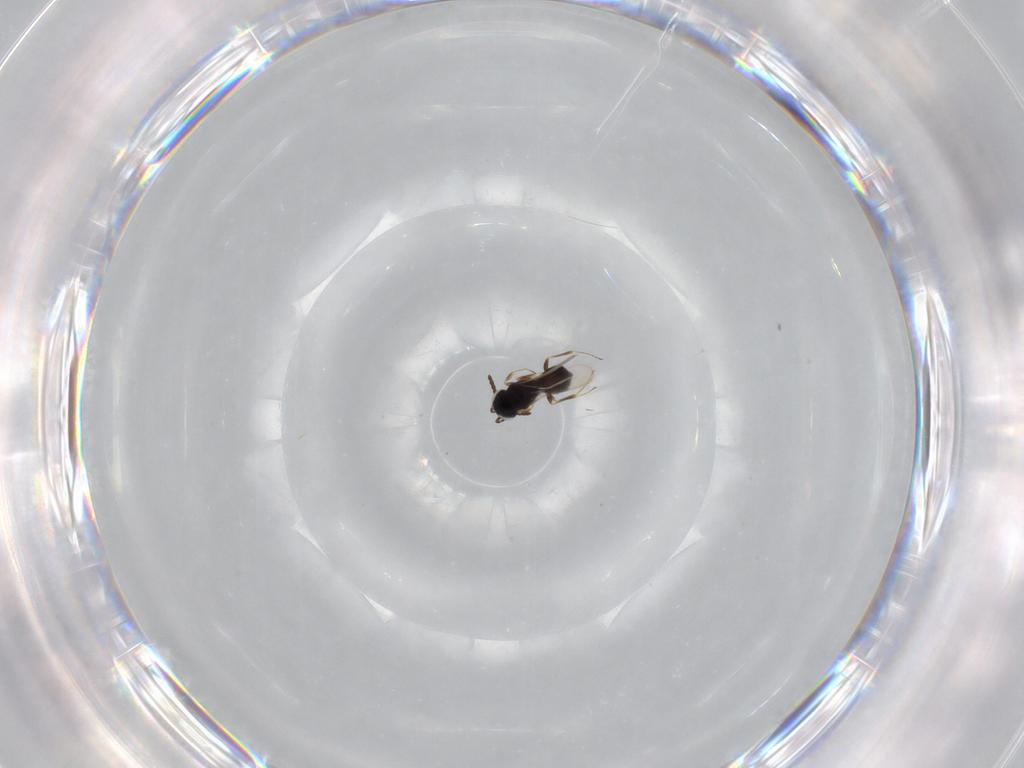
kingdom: Animalia
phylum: Arthropoda
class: Insecta
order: Hymenoptera
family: Scelionidae
